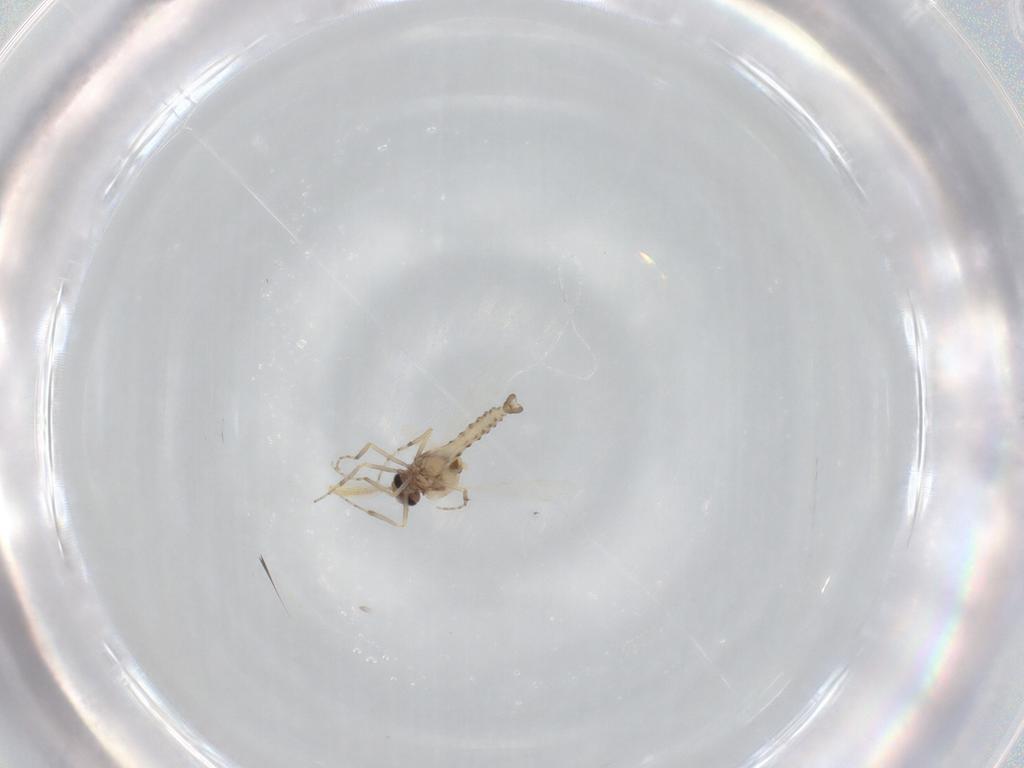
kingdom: Animalia
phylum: Arthropoda
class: Insecta
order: Diptera
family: Ceratopogonidae
